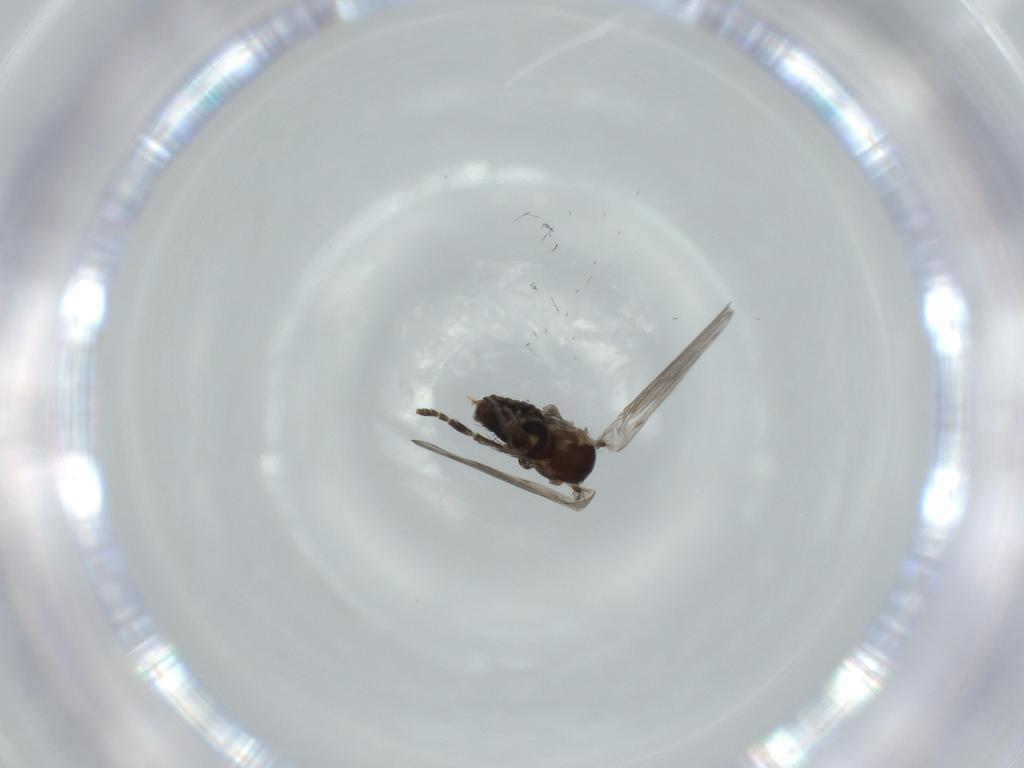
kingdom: Animalia
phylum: Arthropoda
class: Insecta
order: Diptera
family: Psychodidae
